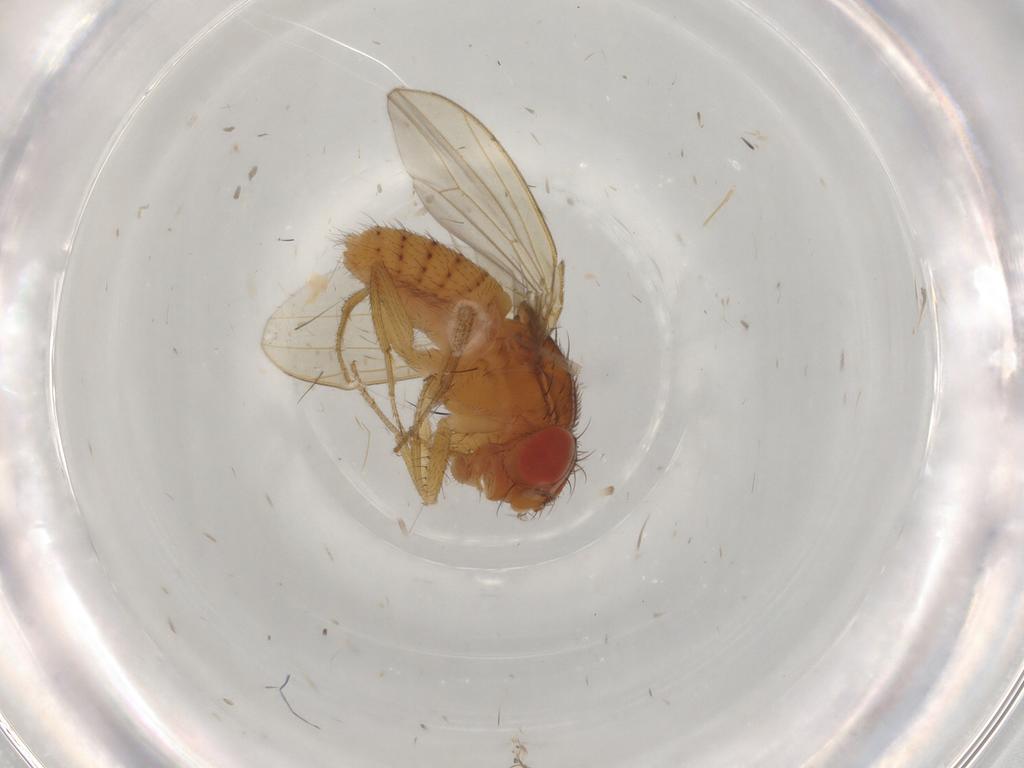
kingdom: Animalia
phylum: Arthropoda
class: Insecta
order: Diptera
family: Drosophilidae
